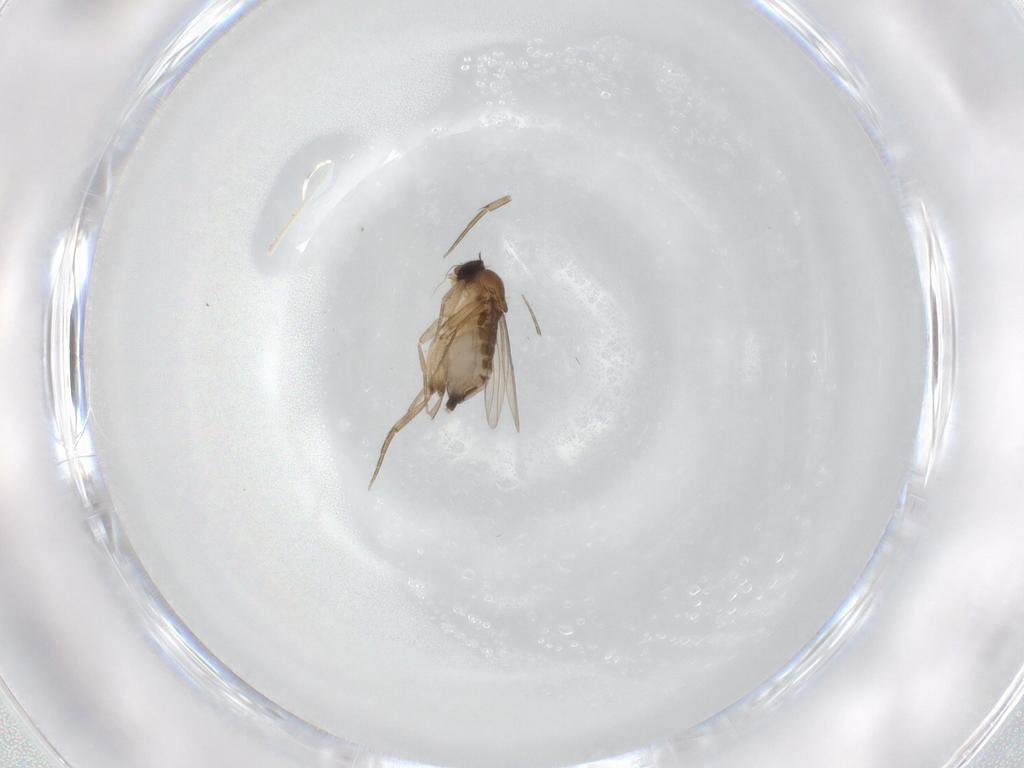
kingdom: Animalia
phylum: Arthropoda
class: Insecta
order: Diptera
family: Phoridae
